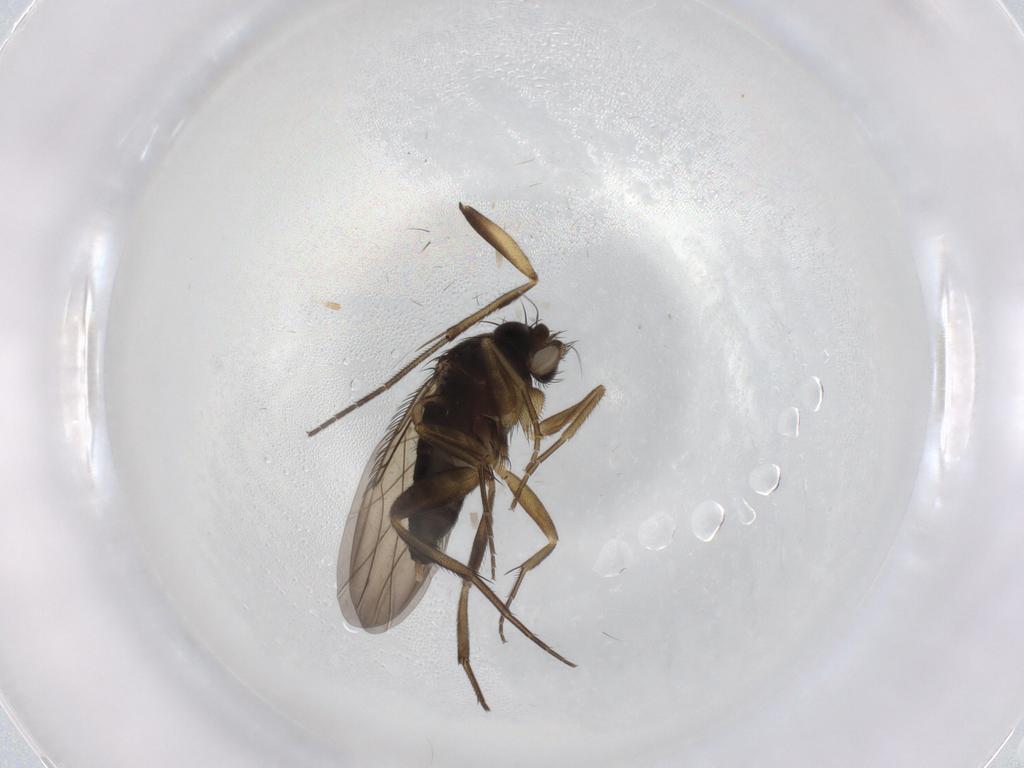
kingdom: Animalia
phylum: Arthropoda
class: Insecta
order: Diptera
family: Phoridae
